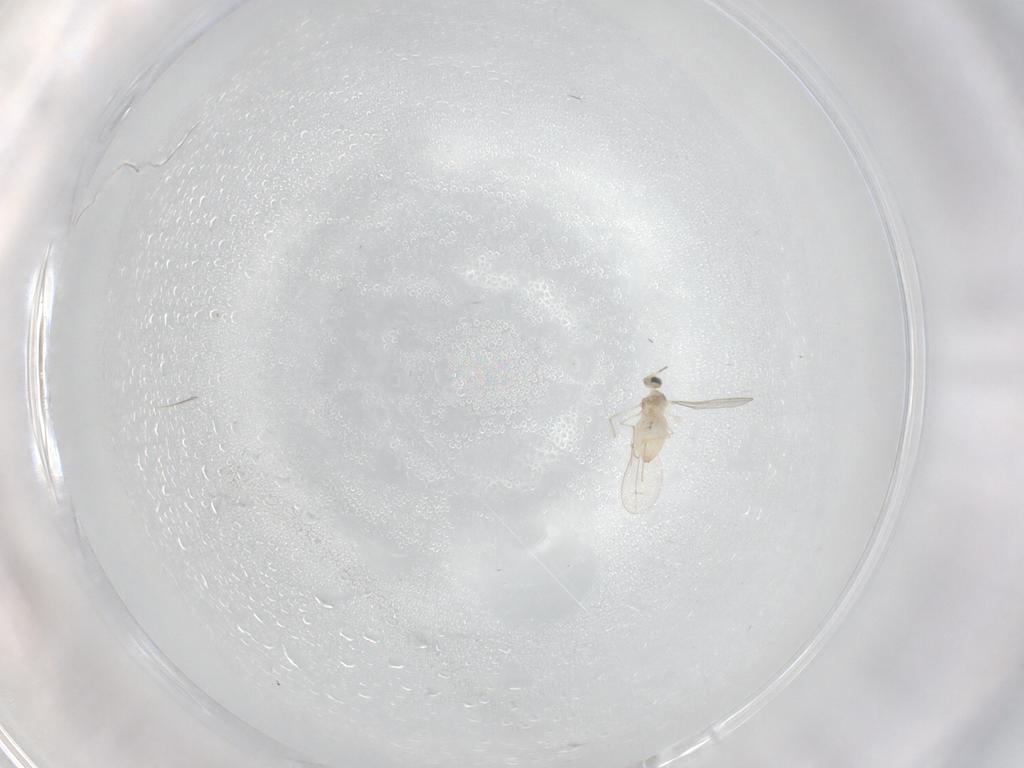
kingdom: Animalia
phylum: Arthropoda
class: Insecta
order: Diptera
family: Cecidomyiidae
